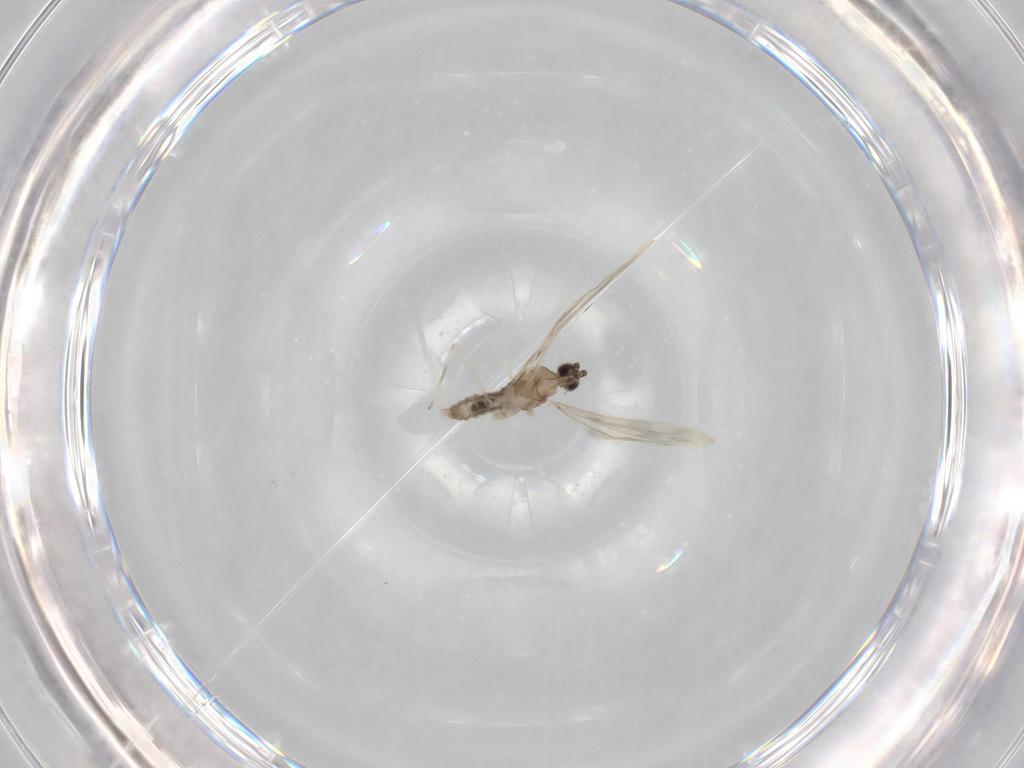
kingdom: Animalia
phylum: Arthropoda
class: Insecta
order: Diptera
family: Cecidomyiidae
